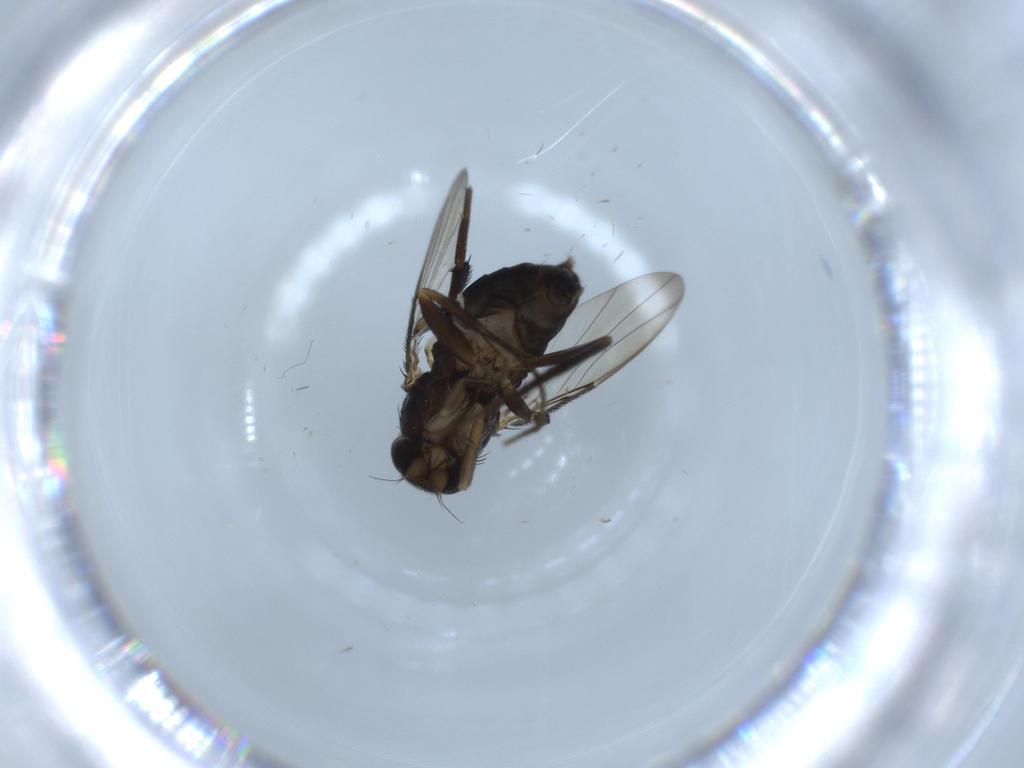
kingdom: Animalia
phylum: Arthropoda
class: Insecta
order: Diptera
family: Phoridae
